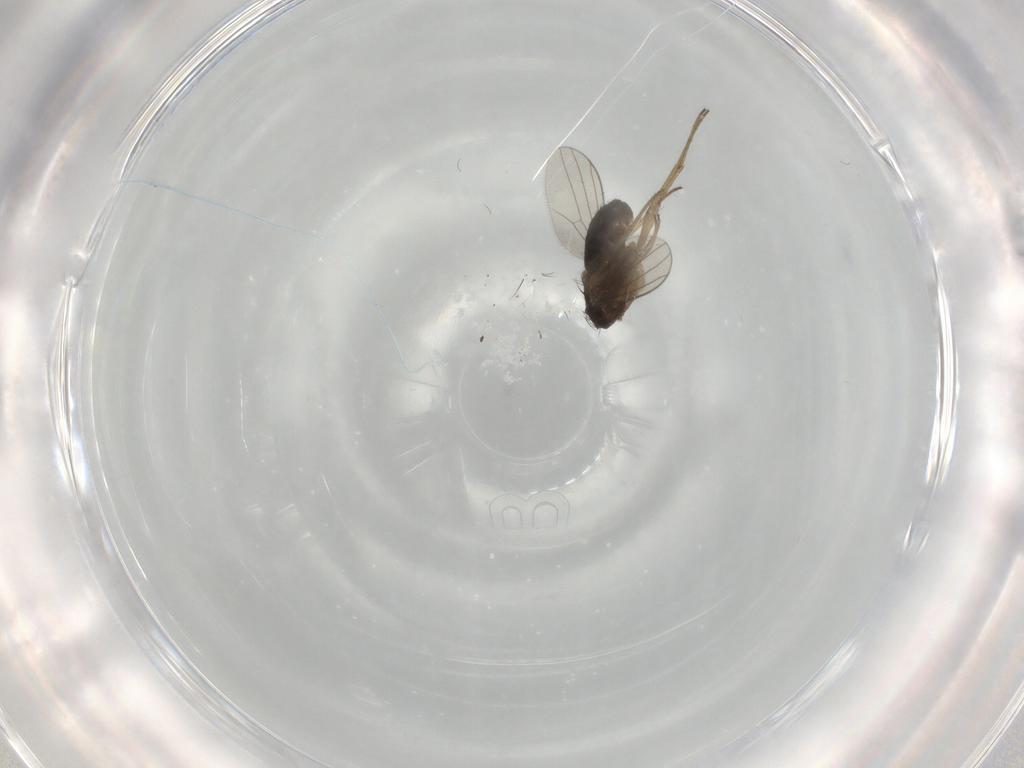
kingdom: Animalia
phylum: Arthropoda
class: Insecta
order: Diptera
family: Dolichopodidae
